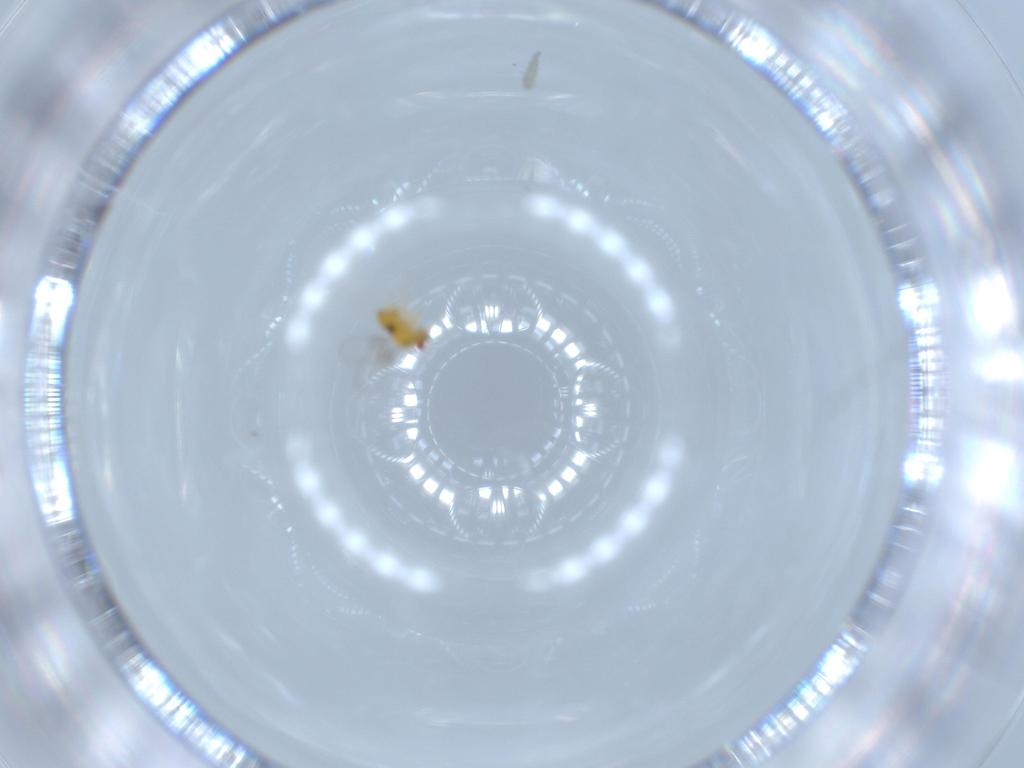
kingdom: Animalia
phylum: Arthropoda
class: Insecta
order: Hymenoptera
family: Trichogrammatidae
